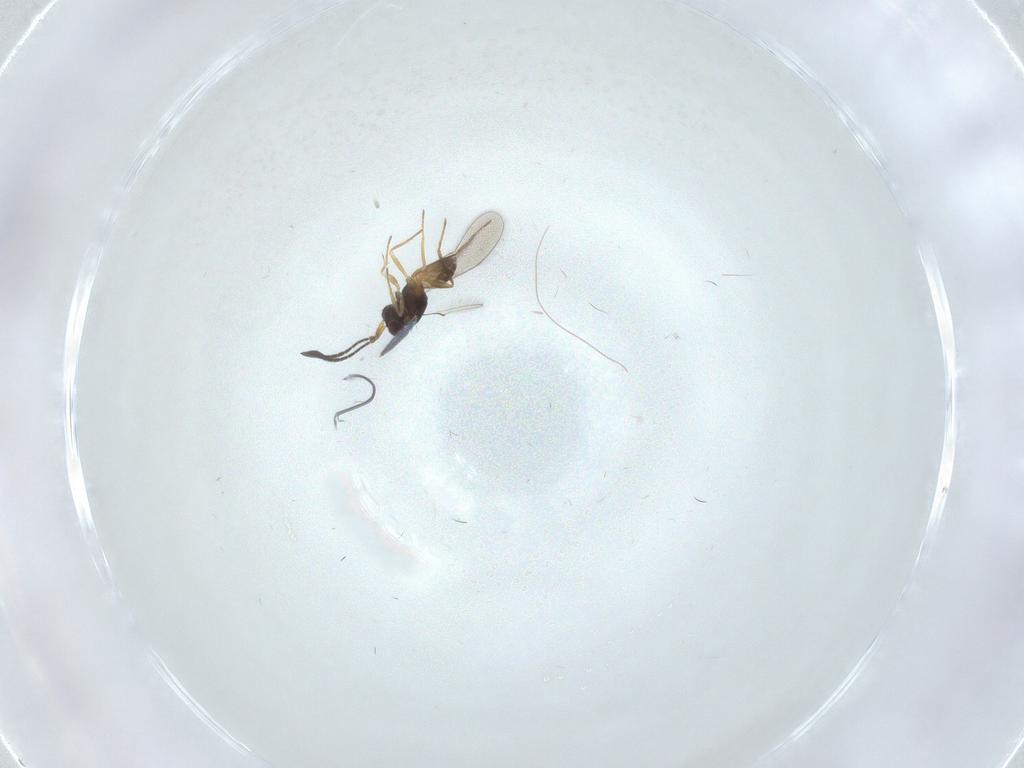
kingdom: Animalia
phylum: Arthropoda
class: Insecta
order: Hymenoptera
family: Mymaridae
